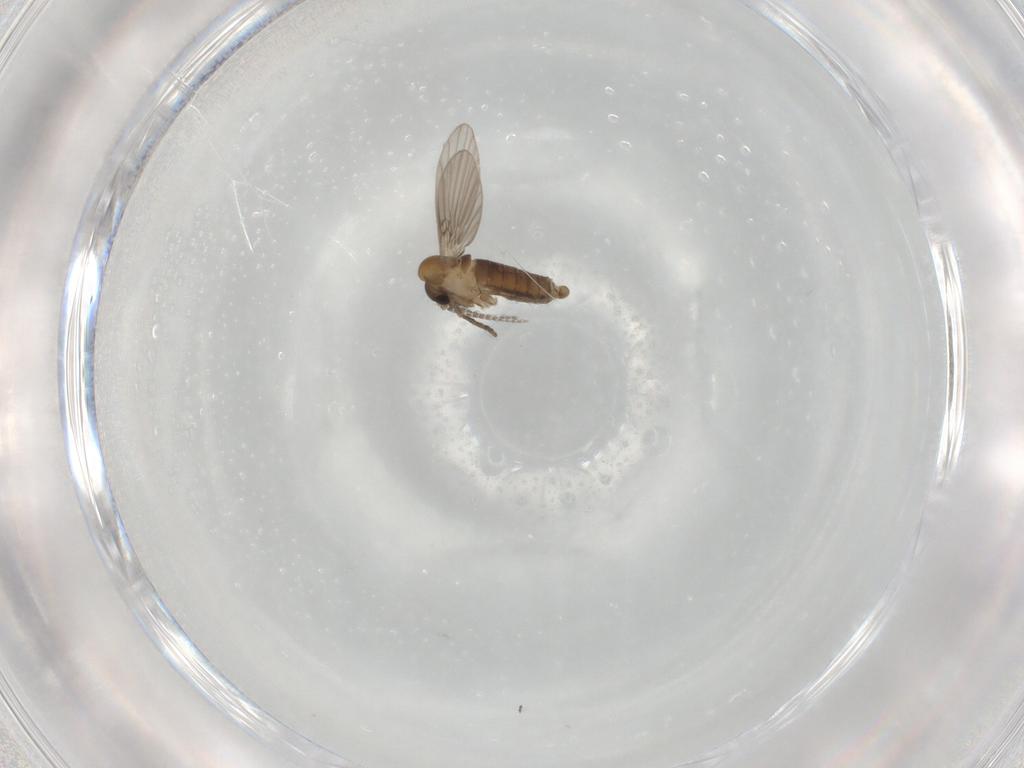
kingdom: Animalia
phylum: Arthropoda
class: Insecta
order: Diptera
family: Psychodidae
